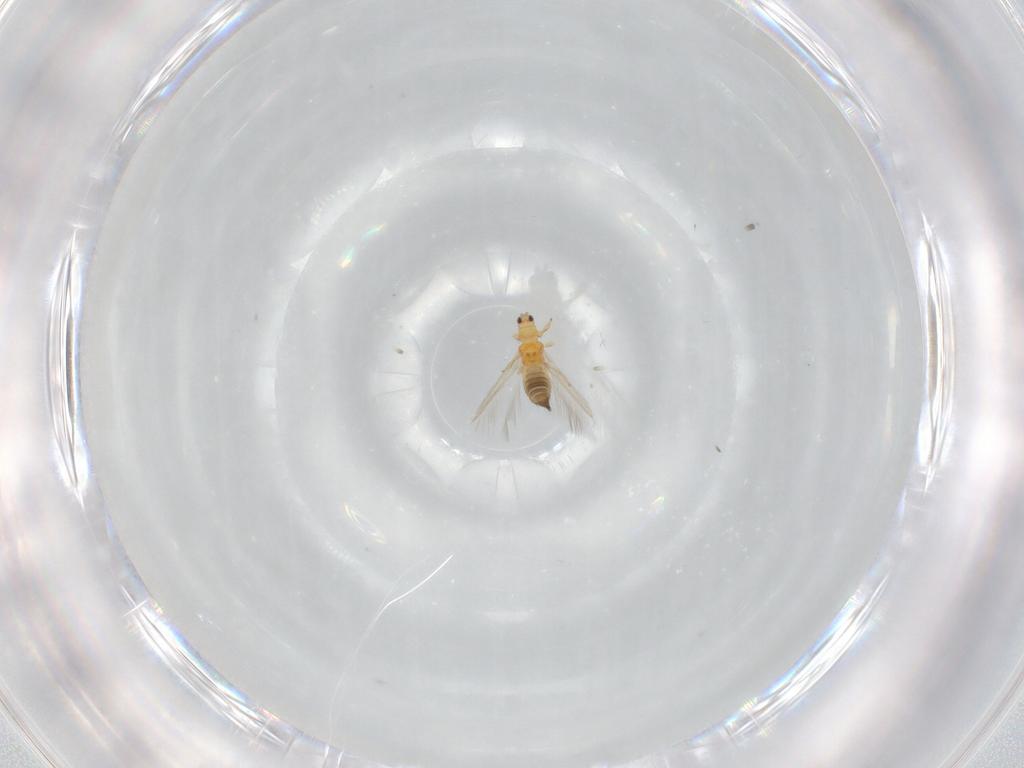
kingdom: Animalia
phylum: Arthropoda
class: Insecta
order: Thysanoptera
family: Thripidae
